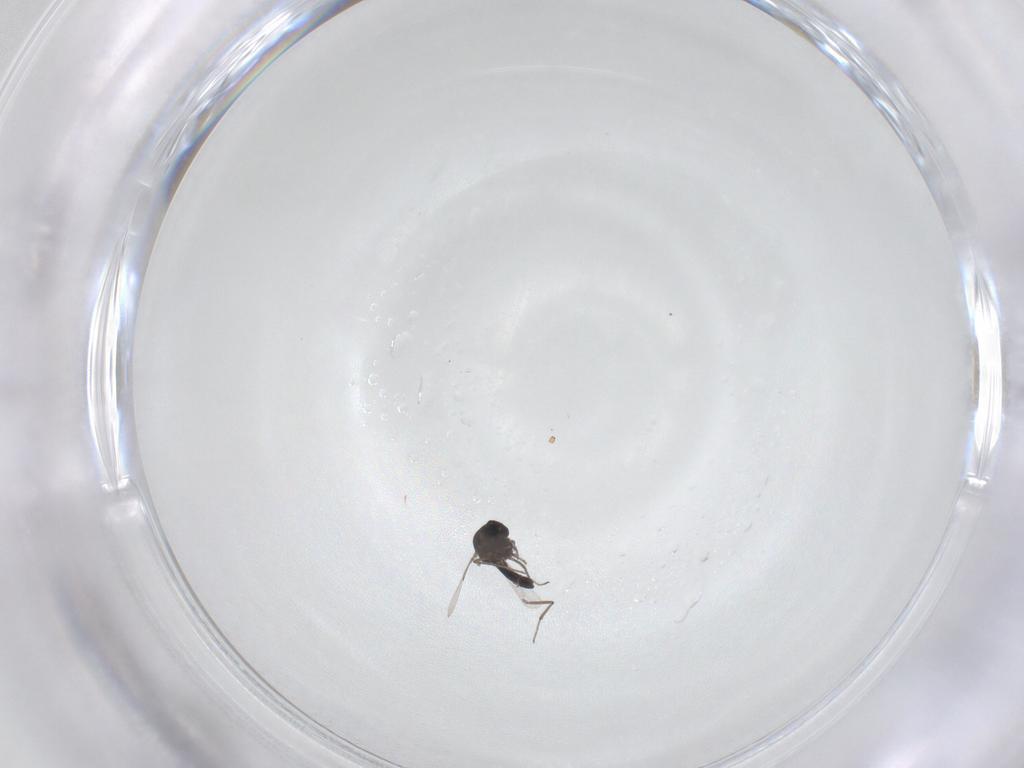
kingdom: Animalia
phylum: Arthropoda
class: Insecta
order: Diptera
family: Ceratopogonidae
